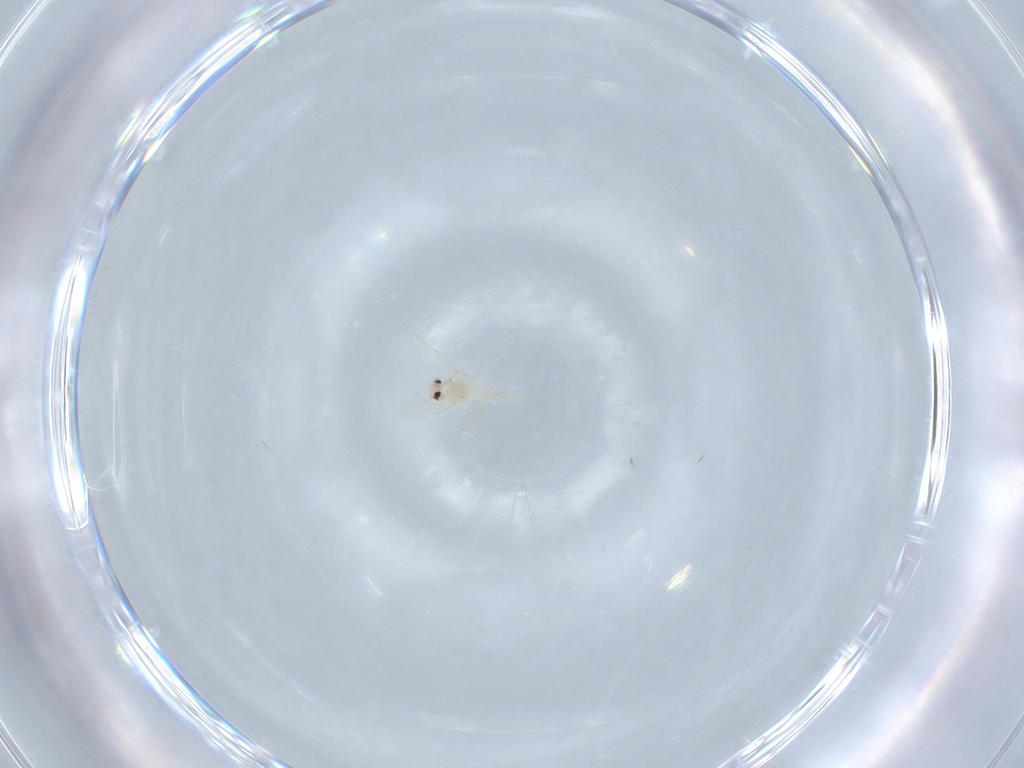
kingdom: Animalia
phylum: Arthropoda
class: Insecta
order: Hemiptera
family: Aleyrodidae
